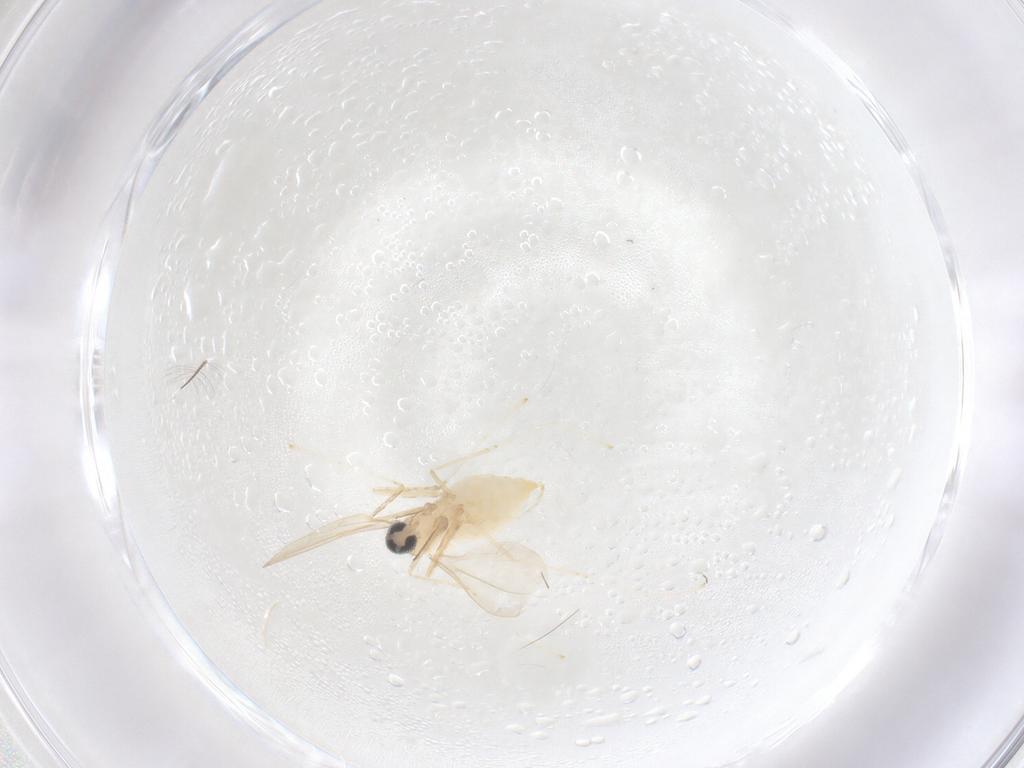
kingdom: Animalia
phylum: Arthropoda
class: Insecta
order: Diptera
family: Cecidomyiidae
